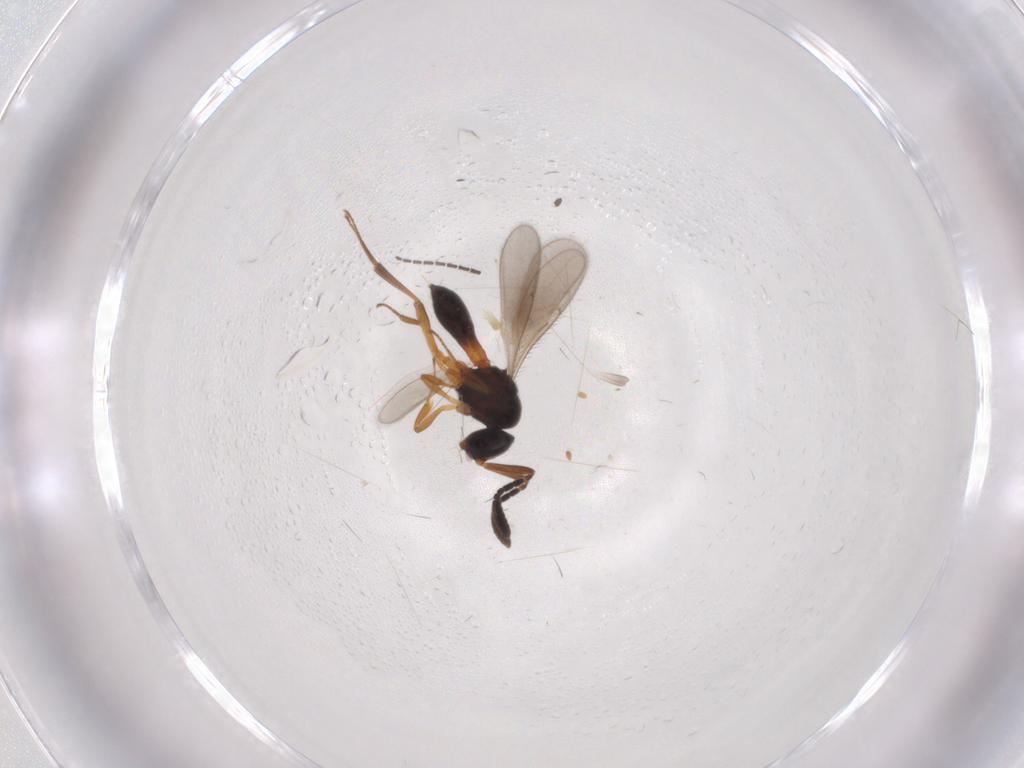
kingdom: Animalia
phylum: Arthropoda
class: Insecta
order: Hymenoptera
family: Scelionidae
